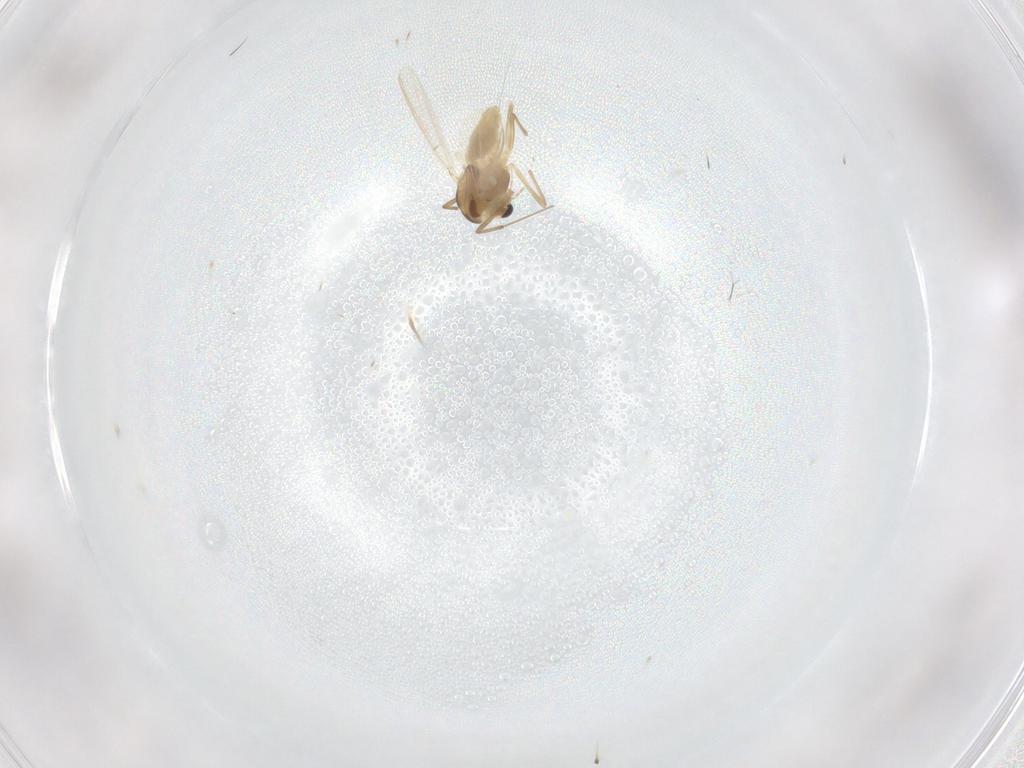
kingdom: Animalia
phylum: Arthropoda
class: Insecta
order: Diptera
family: Chironomidae
